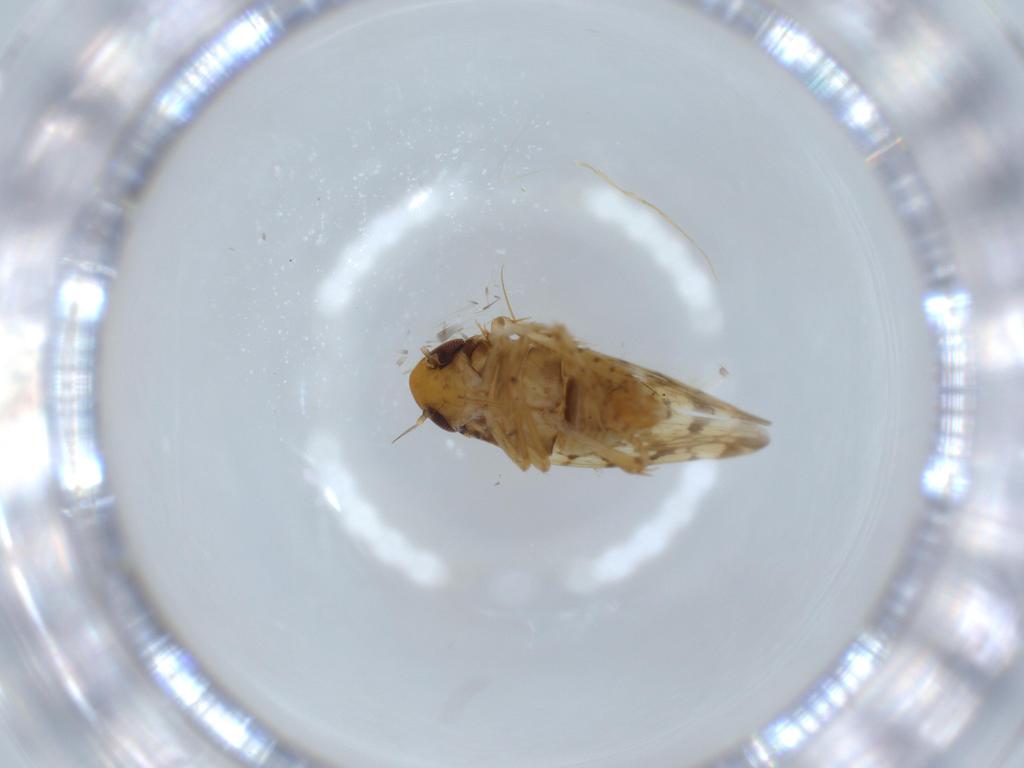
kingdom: Animalia
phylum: Arthropoda
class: Insecta
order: Hemiptera
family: Cicadellidae
